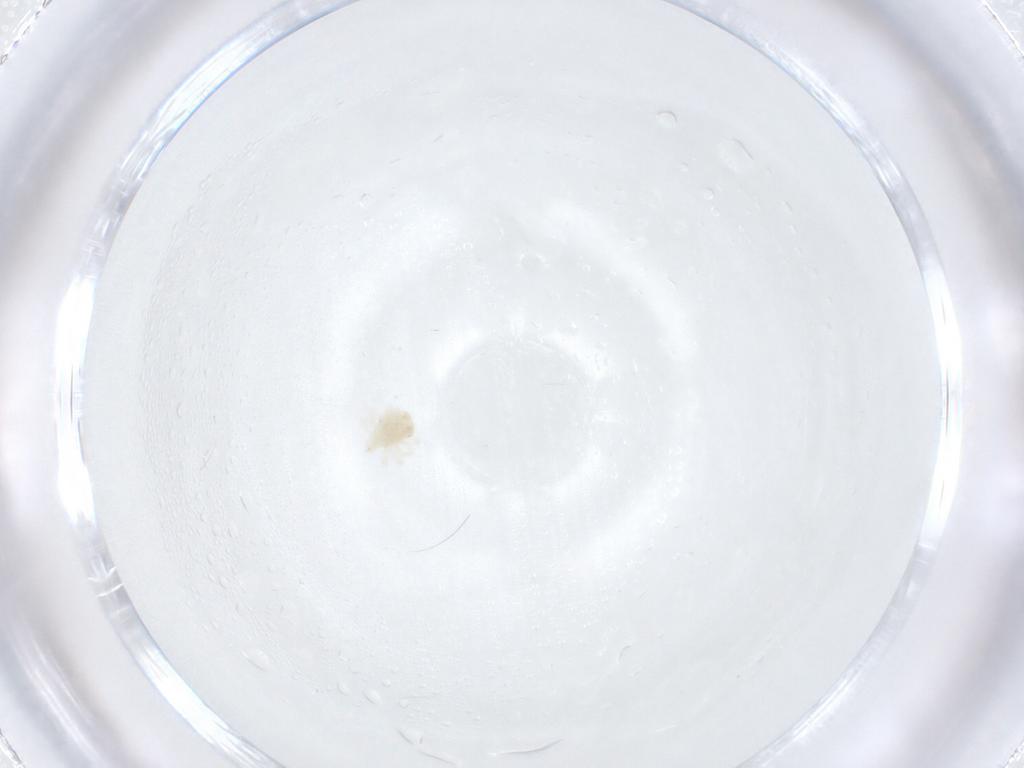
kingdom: Animalia
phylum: Arthropoda
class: Arachnida
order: Trombidiformes
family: Anystidae
